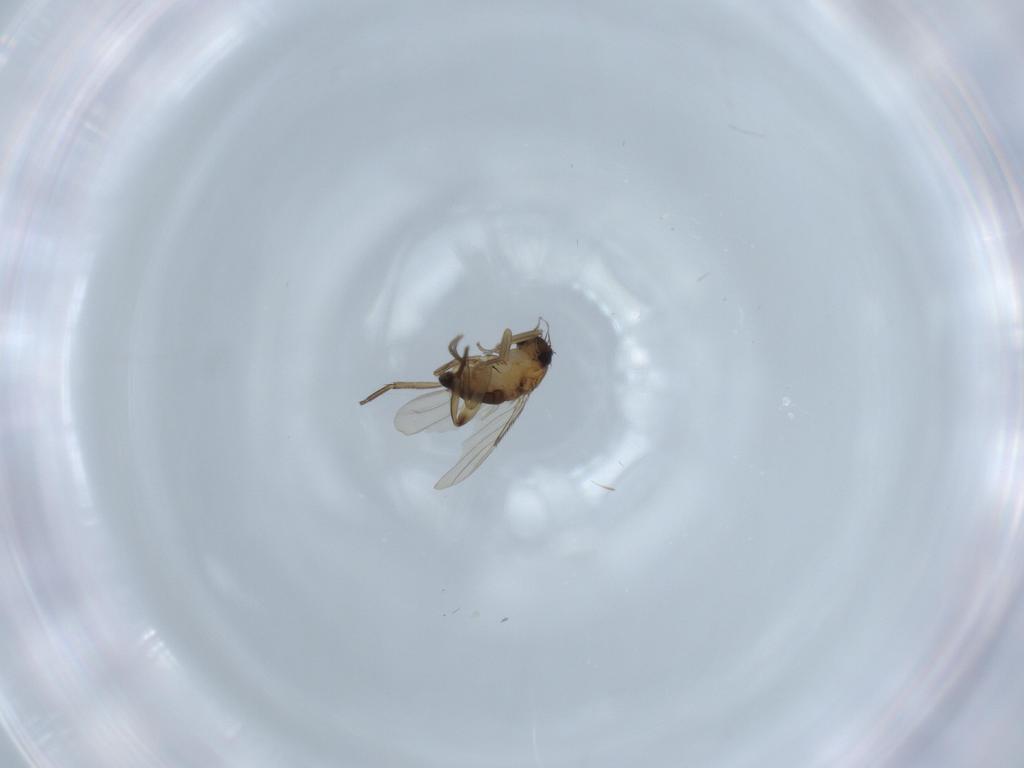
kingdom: Animalia
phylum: Arthropoda
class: Insecta
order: Diptera
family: Phoridae
